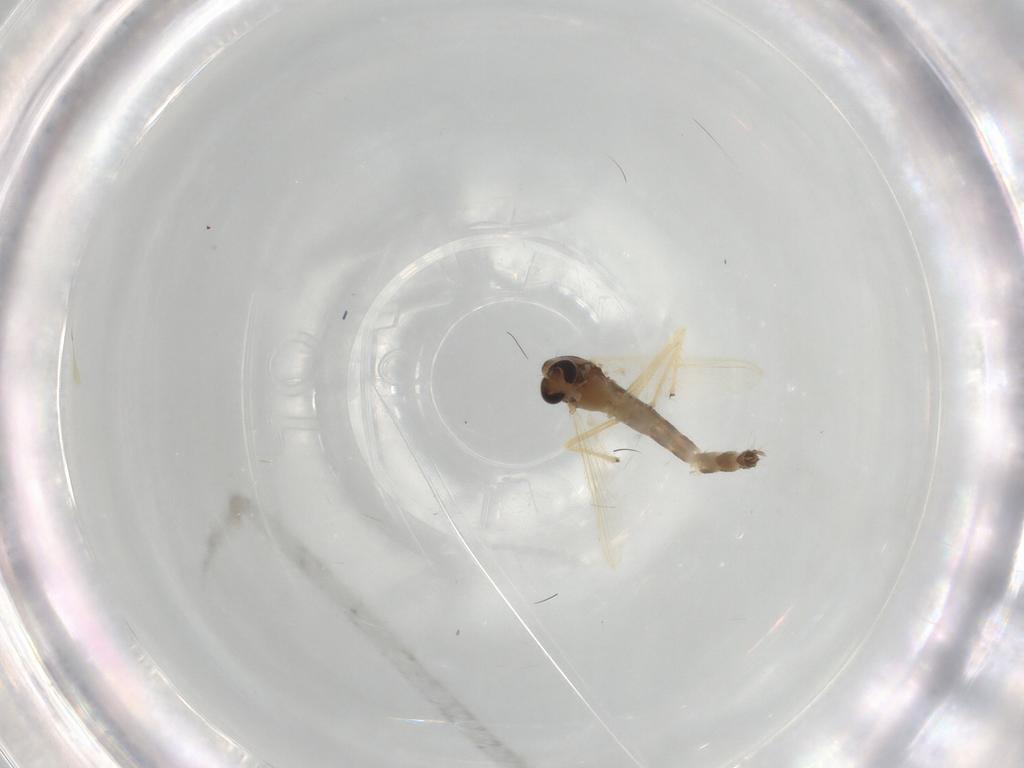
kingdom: Animalia
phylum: Arthropoda
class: Insecta
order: Diptera
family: Chironomidae
